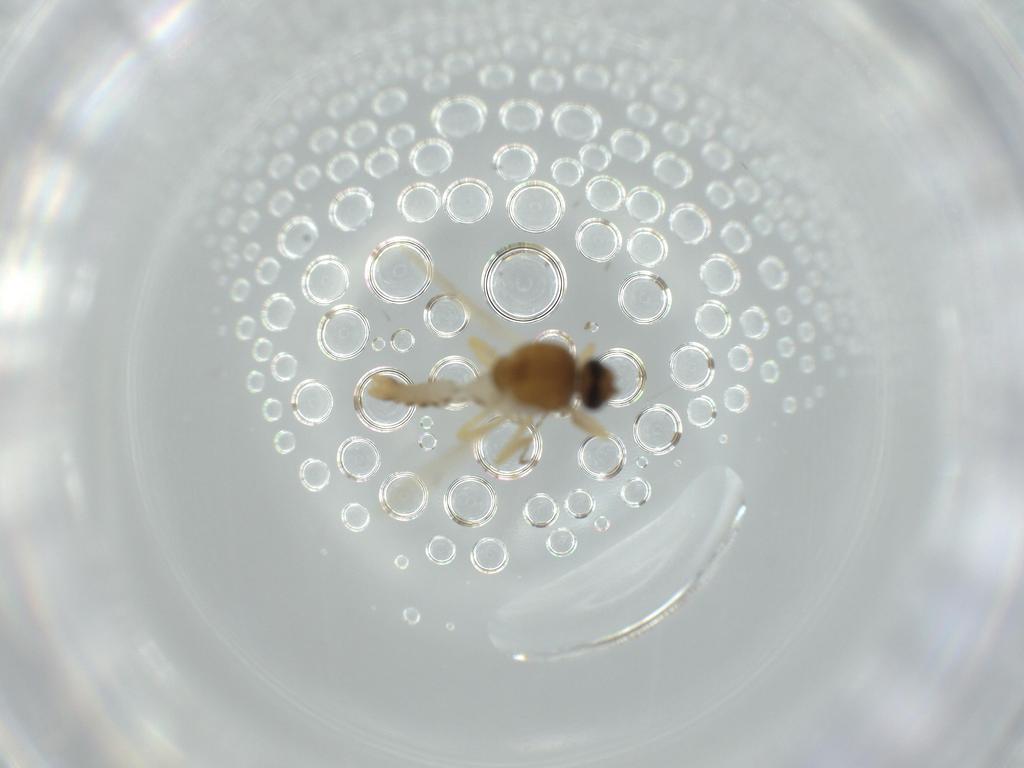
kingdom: Animalia
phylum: Arthropoda
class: Insecta
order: Diptera
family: Ceratopogonidae
